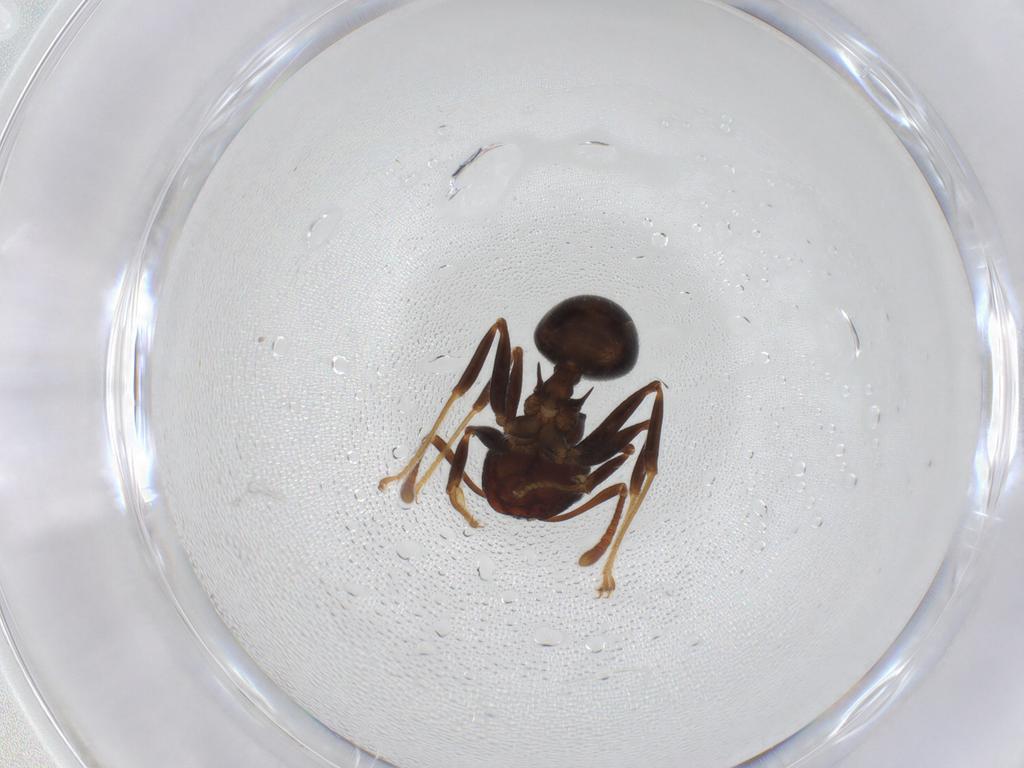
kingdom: Animalia
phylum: Arthropoda
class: Insecta
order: Hymenoptera
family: Formicidae
